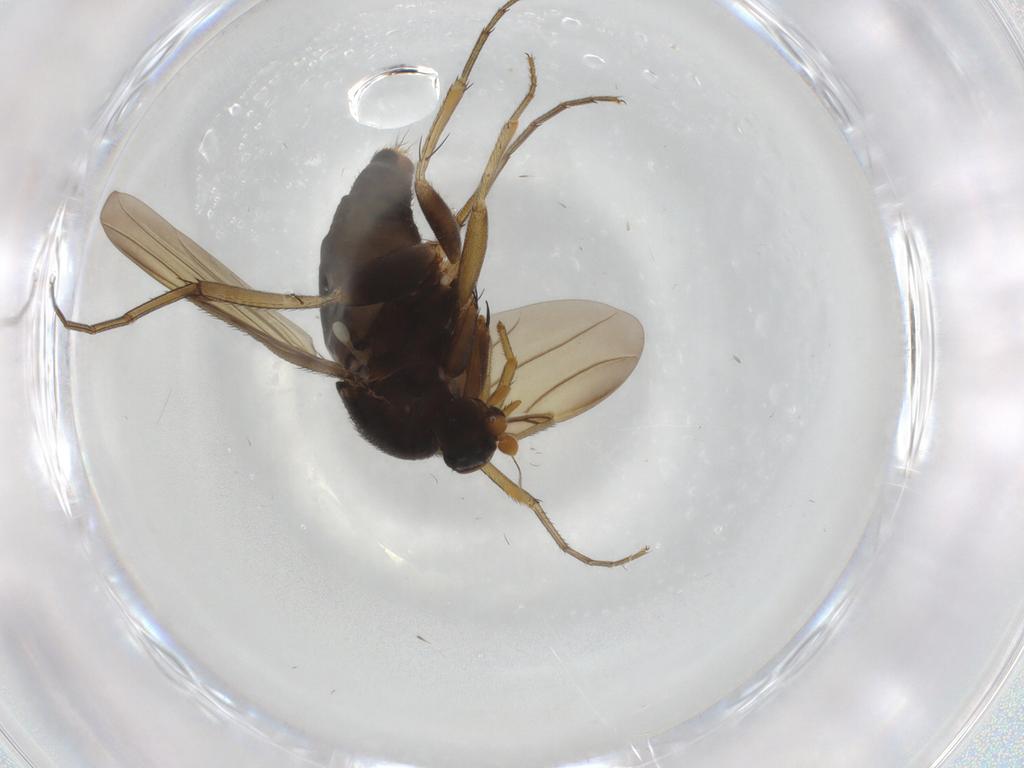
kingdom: Animalia
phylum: Arthropoda
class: Insecta
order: Diptera
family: Phoridae
